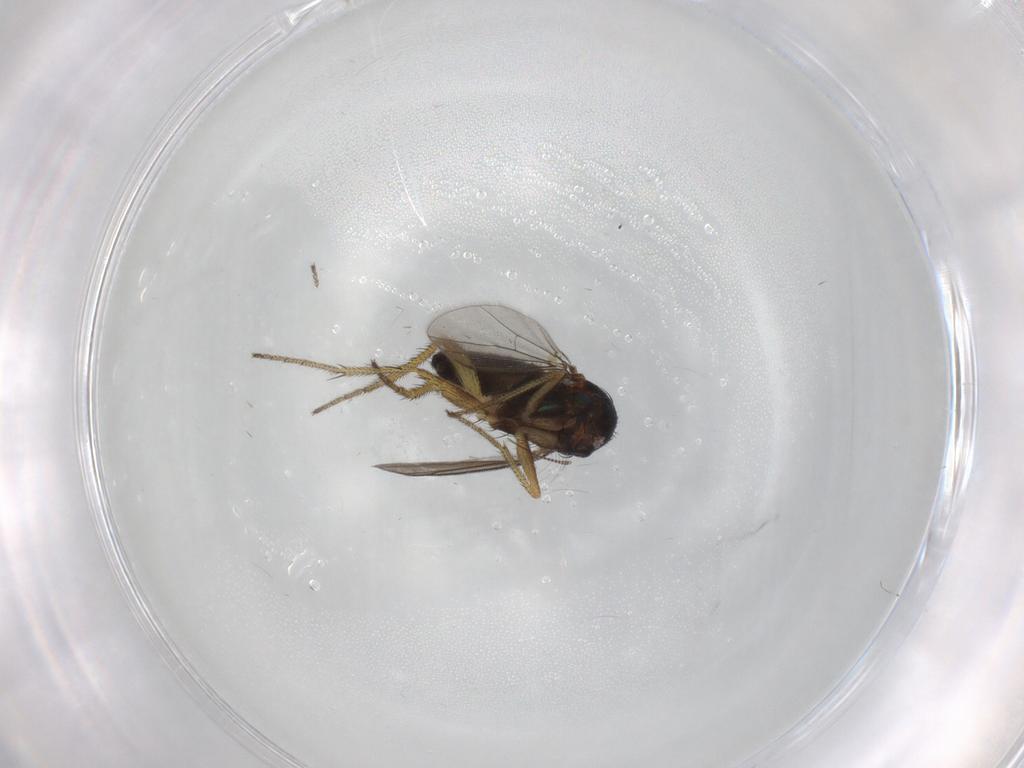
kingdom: Animalia
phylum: Arthropoda
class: Insecta
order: Diptera
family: Chironomidae
